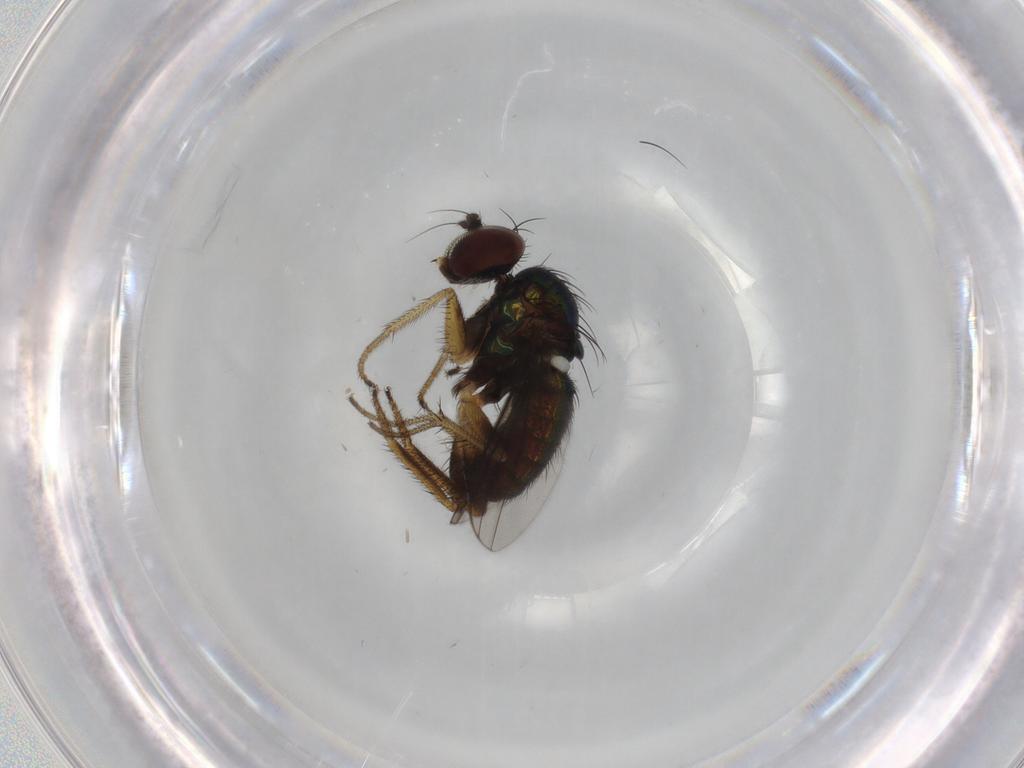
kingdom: Animalia
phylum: Arthropoda
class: Insecta
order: Diptera
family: Dolichopodidae
